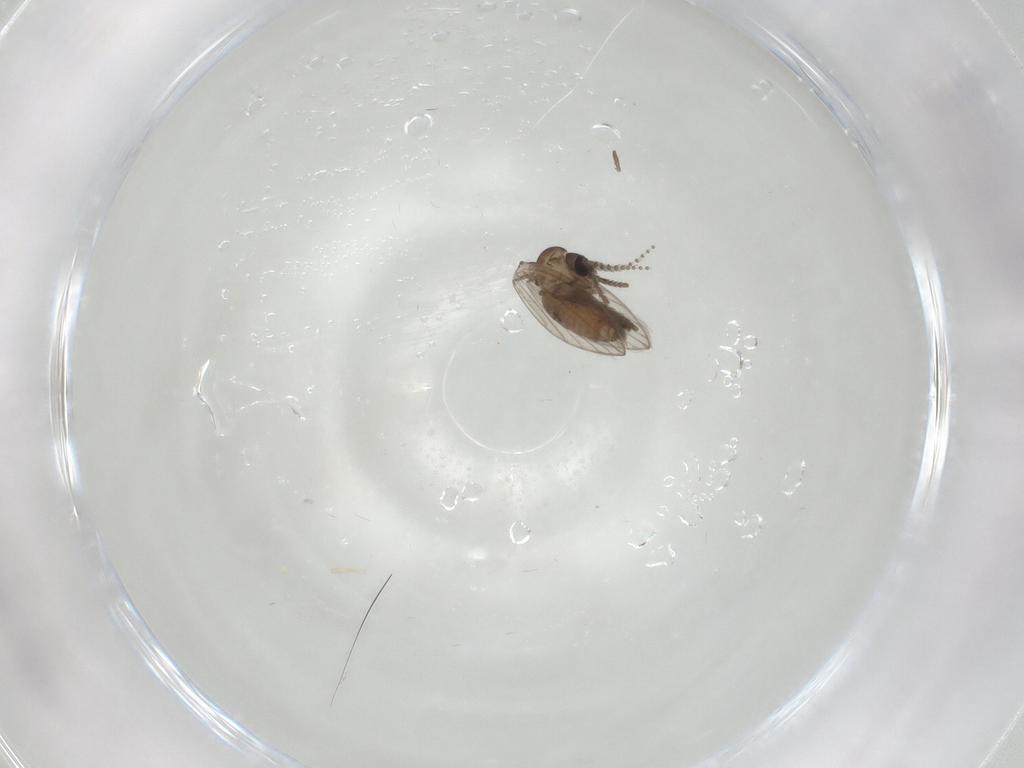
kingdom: Animalia
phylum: Arthropoda
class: Insecta
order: Diptera
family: Psychodidae
